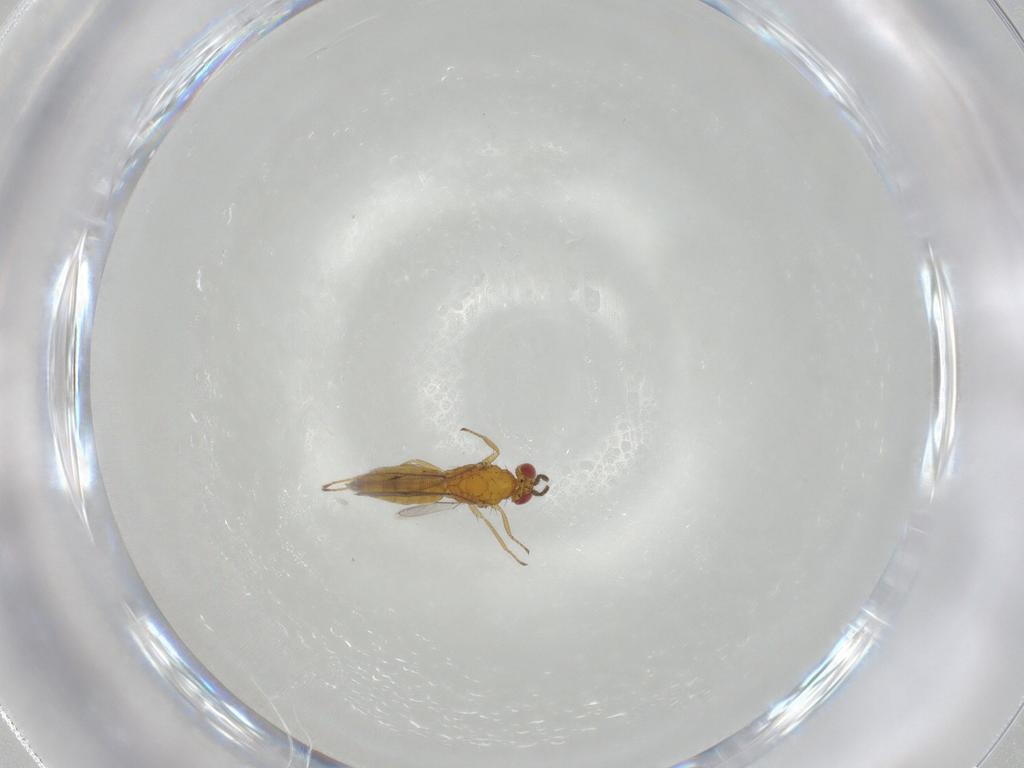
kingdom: Animalia
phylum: Arthropoda
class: Insecta
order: Hymenoptera
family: Eulophidae
